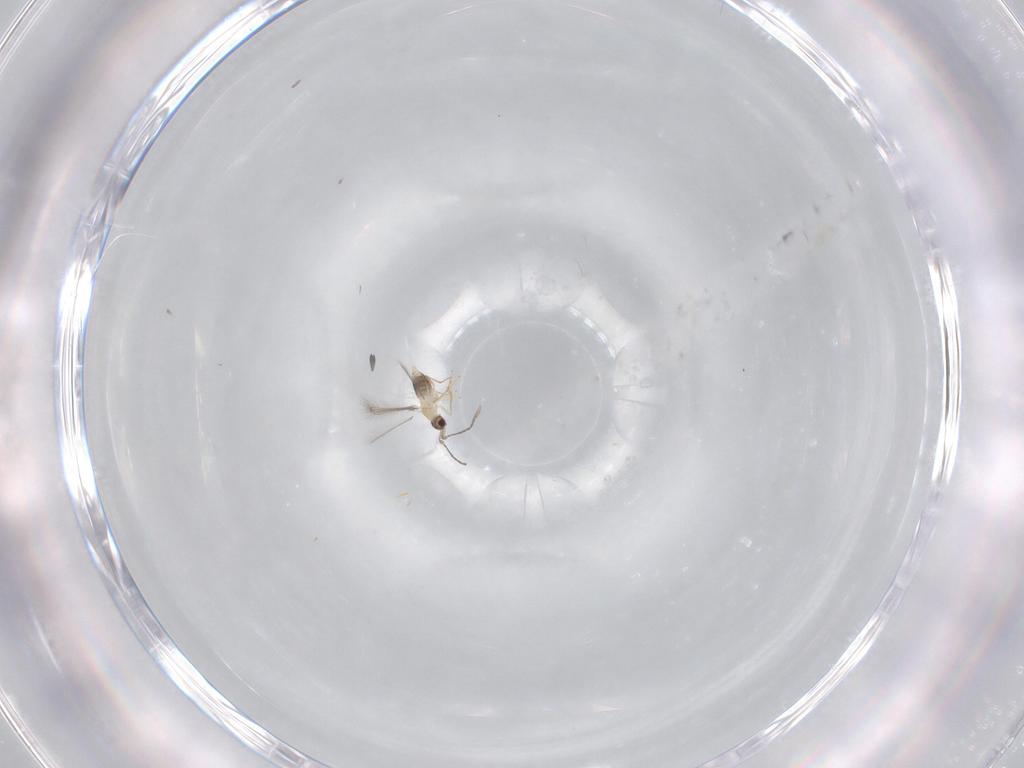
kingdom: Animalia
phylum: Arthropoda
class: Insecta
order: Hymenoptera
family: Mymaridae
